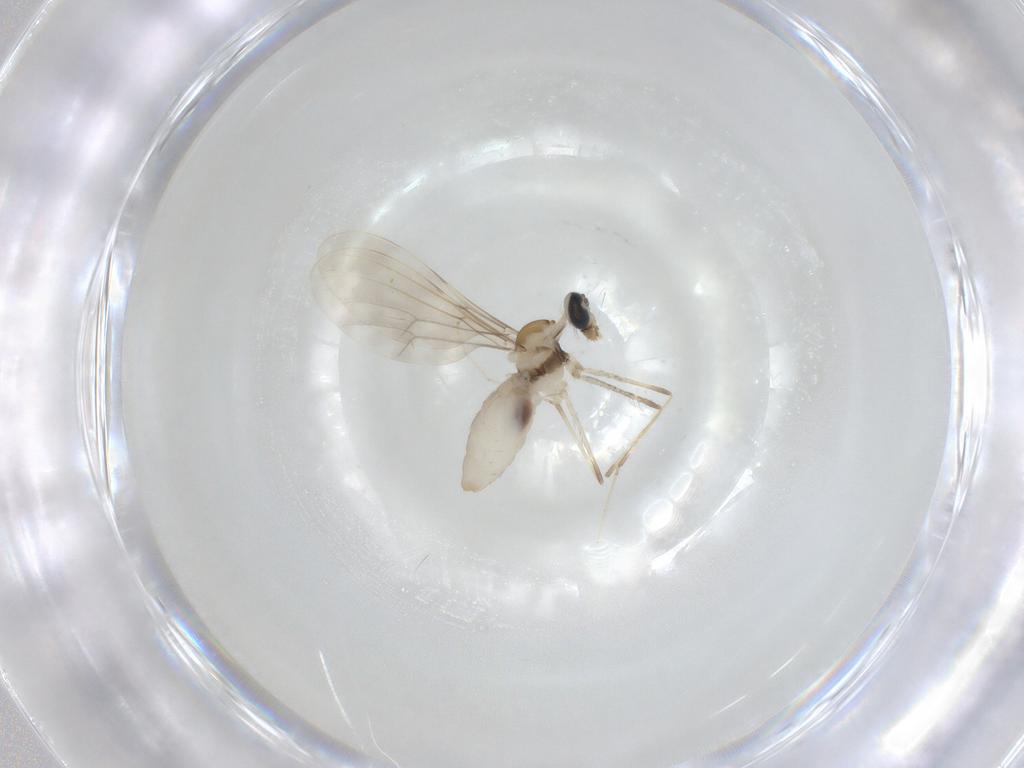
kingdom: Animalia
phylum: Arthropoda
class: Insecta
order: Diptera
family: Cecidomyiidae
